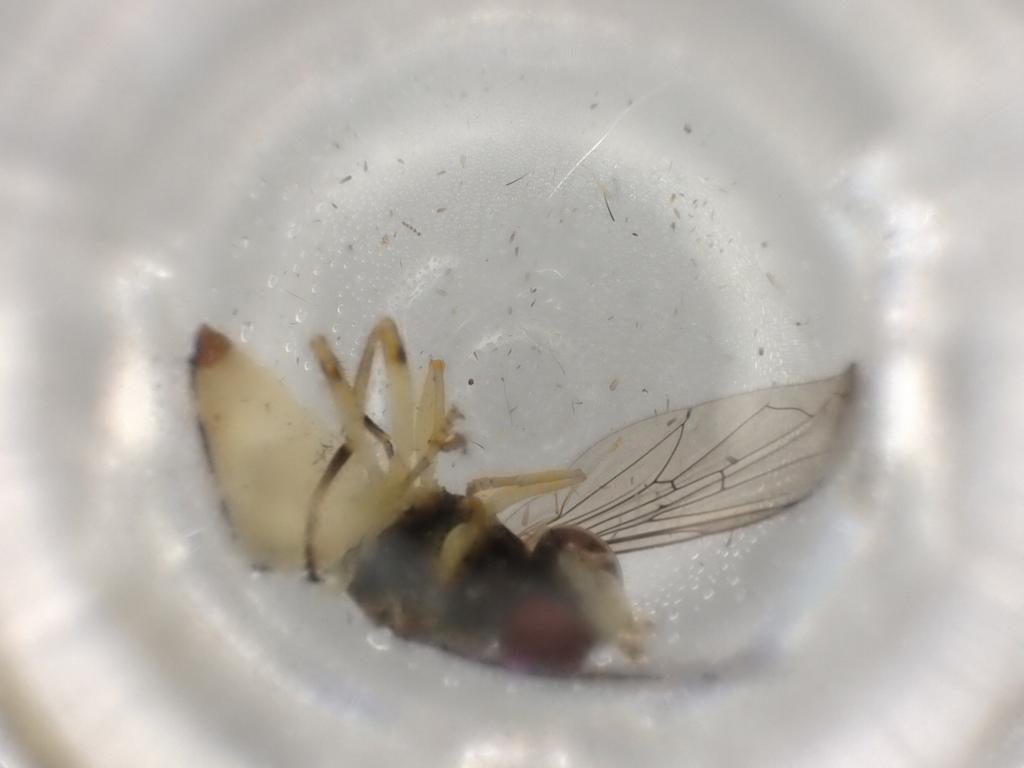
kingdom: Animalia
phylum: Arthropoda
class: Insecta
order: Diptera
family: Syrphidae
